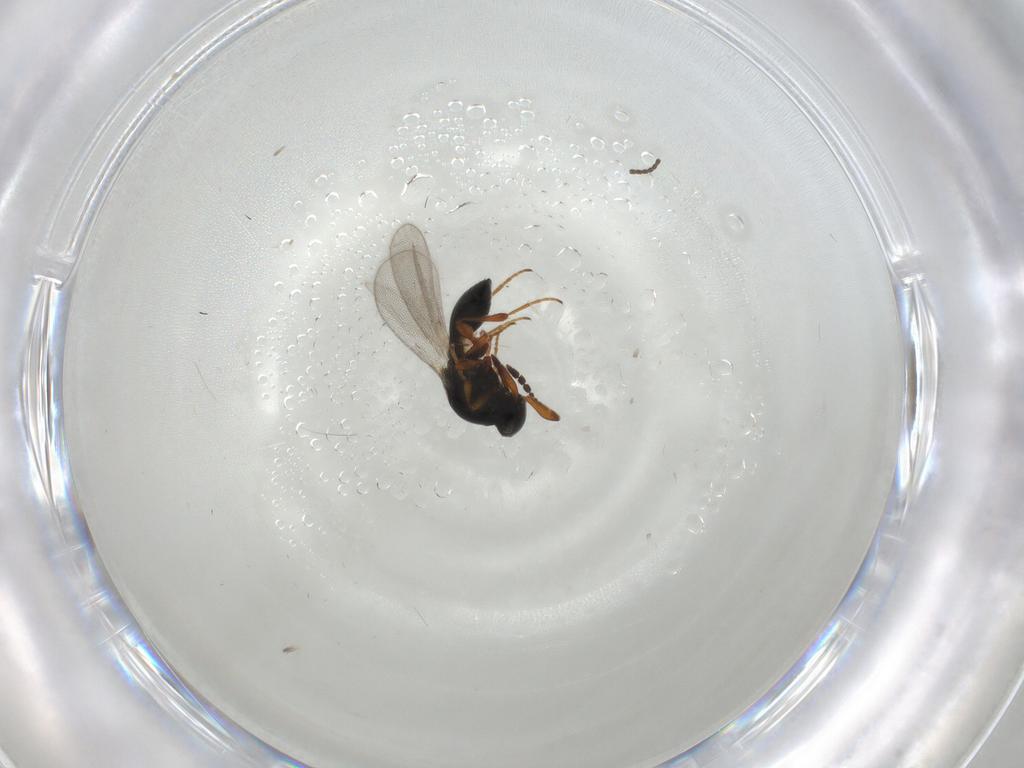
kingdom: Animalia
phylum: Arthropoda
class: Insecta
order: Hymenoptera
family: Platygastridae
